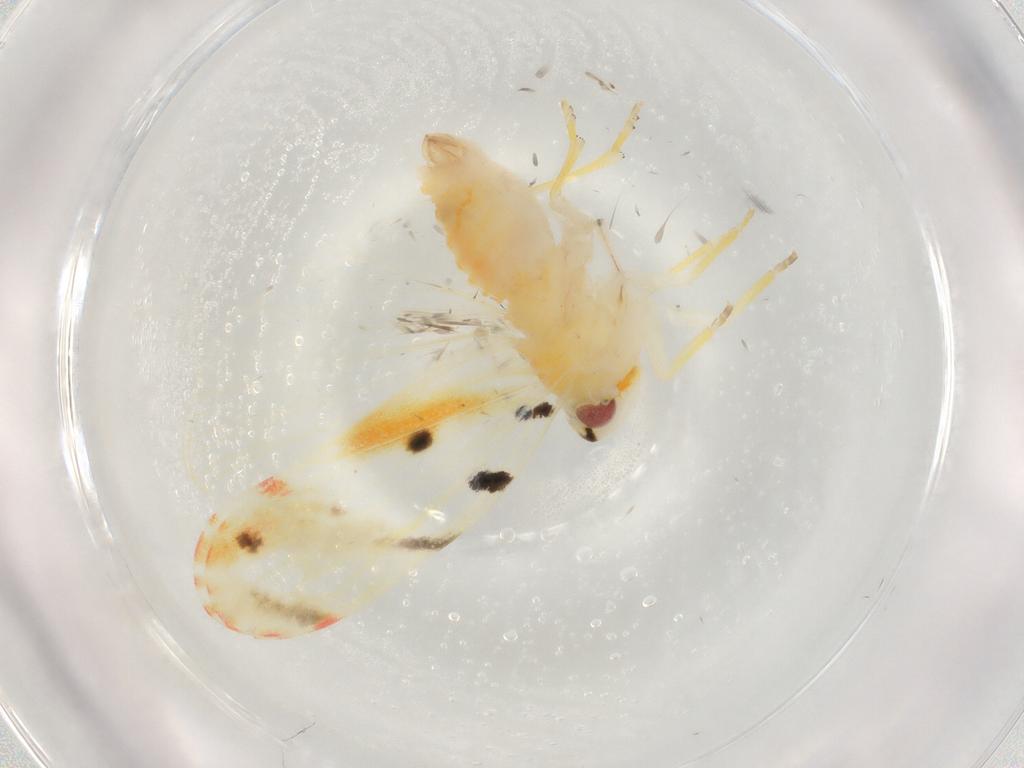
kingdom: Animalia
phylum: Arthropoda
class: Insecta
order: Hemiptera
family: Derbidae
